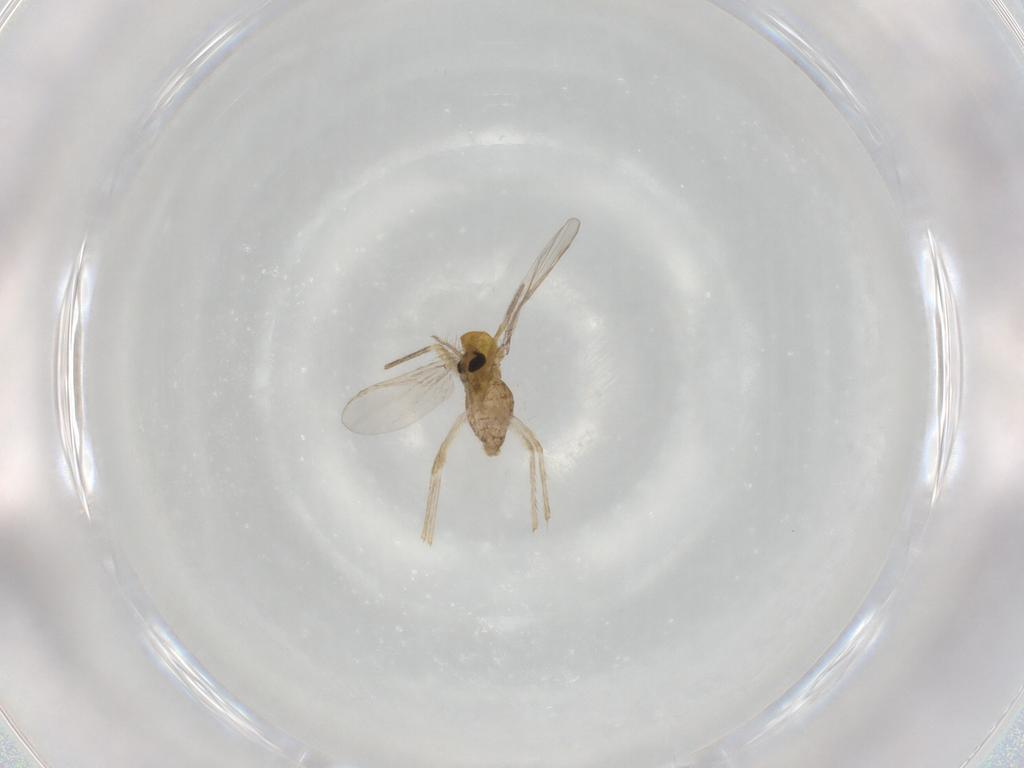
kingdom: Animalia
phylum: Arthropoda
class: Insecta
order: Diptera
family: Chironomidae
